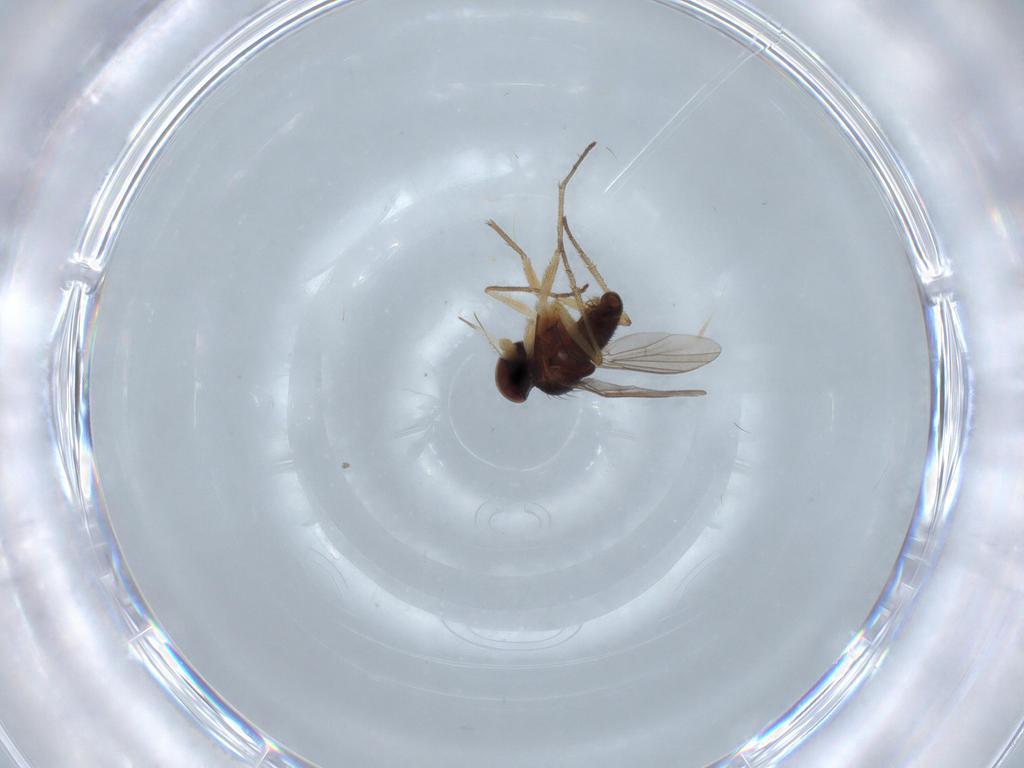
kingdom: Animalia
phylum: Arthropoda
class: Insecta
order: Diptera
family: Dolichopodidae
